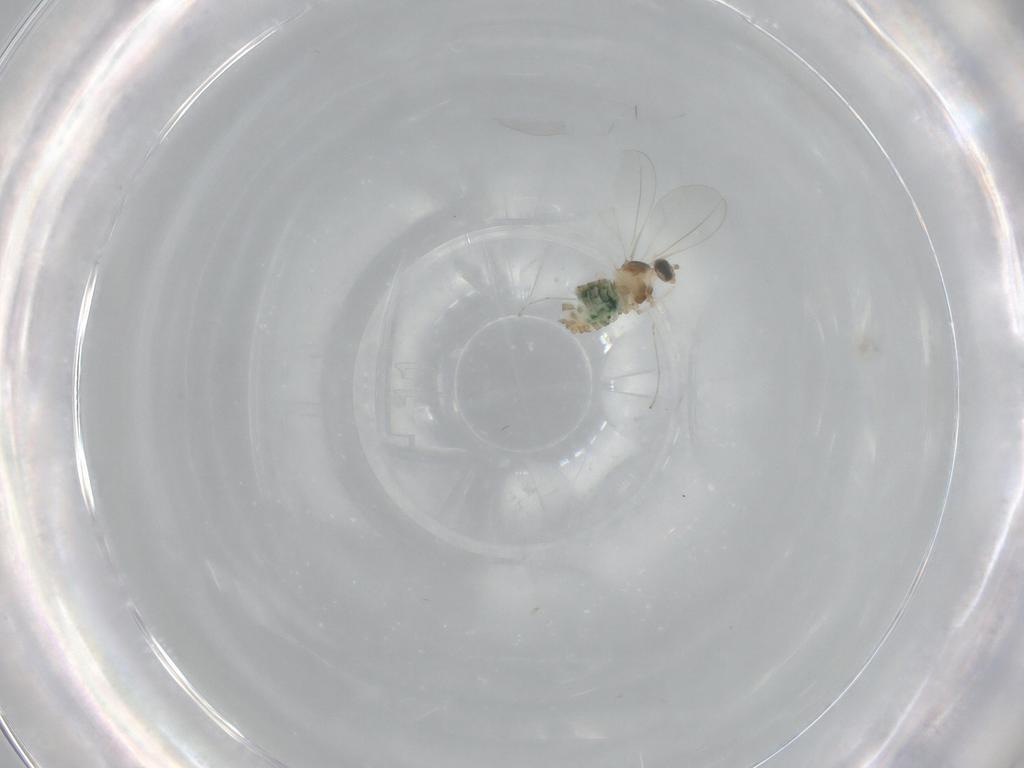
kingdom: Animalia
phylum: Arthropoda
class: Insecta
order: Diptera
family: Cecidomyiidae
